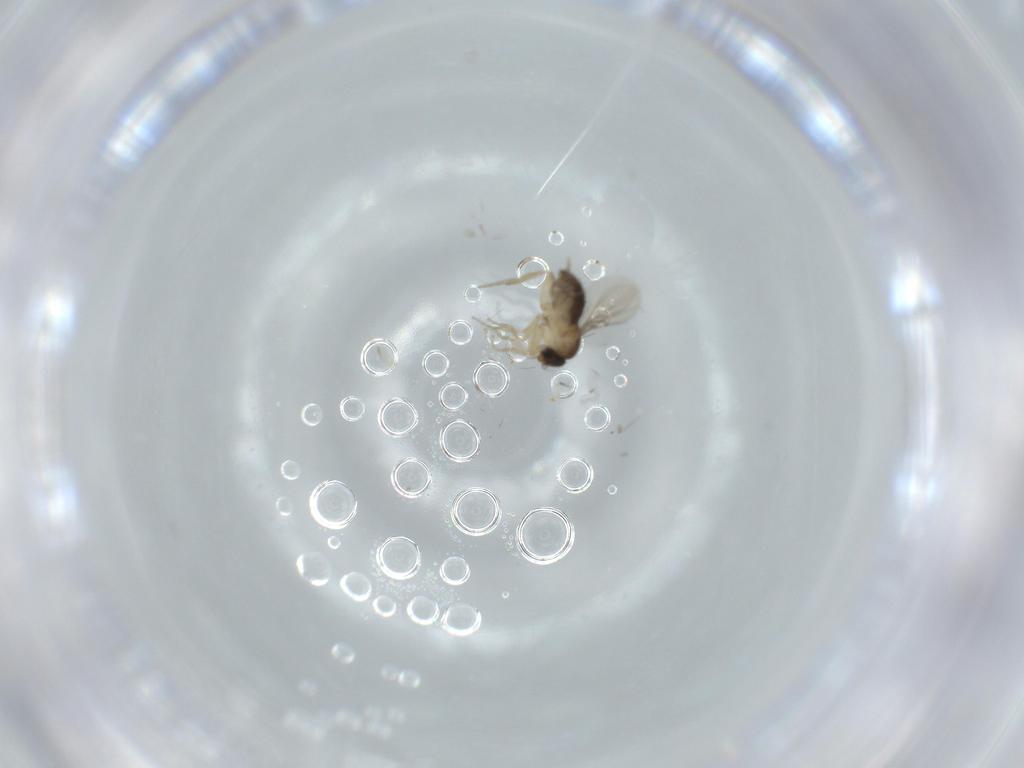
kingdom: Animalia
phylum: Arthropoda
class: Insecta
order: Diptera
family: Phoridae
